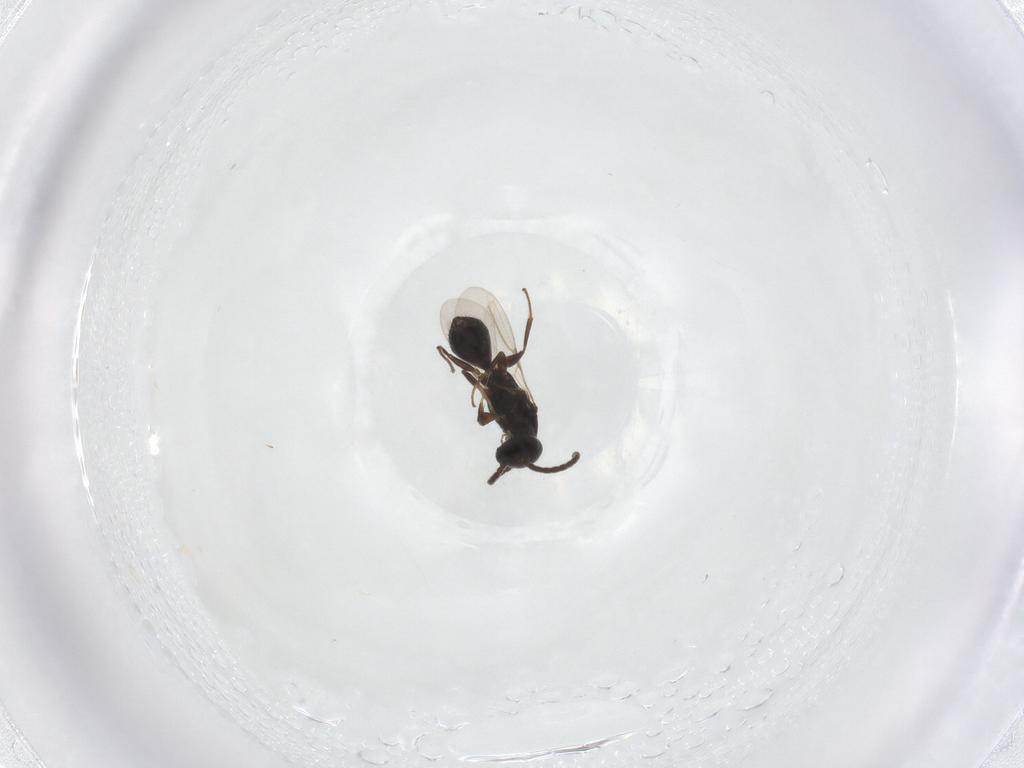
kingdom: Animalia
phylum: Arthropoda
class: Insecta
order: Hymenoptera
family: Bethylidae
